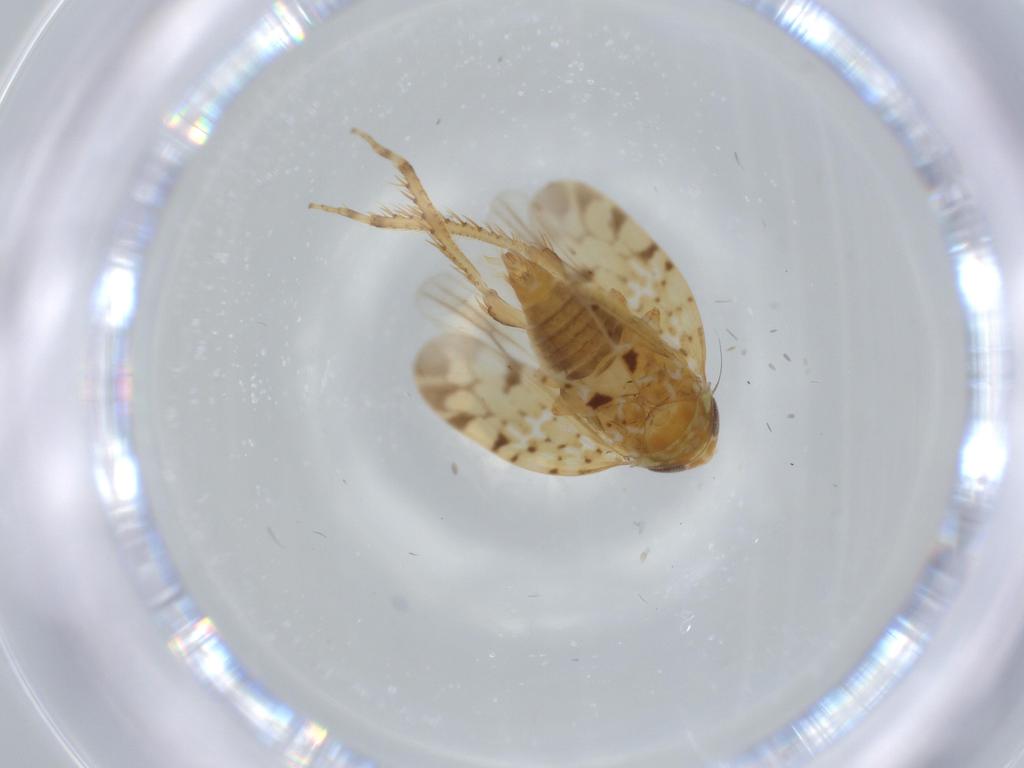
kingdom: Animalia
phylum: Arthropoda
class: Insecta
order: Hemiptera
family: Cicadellidae
